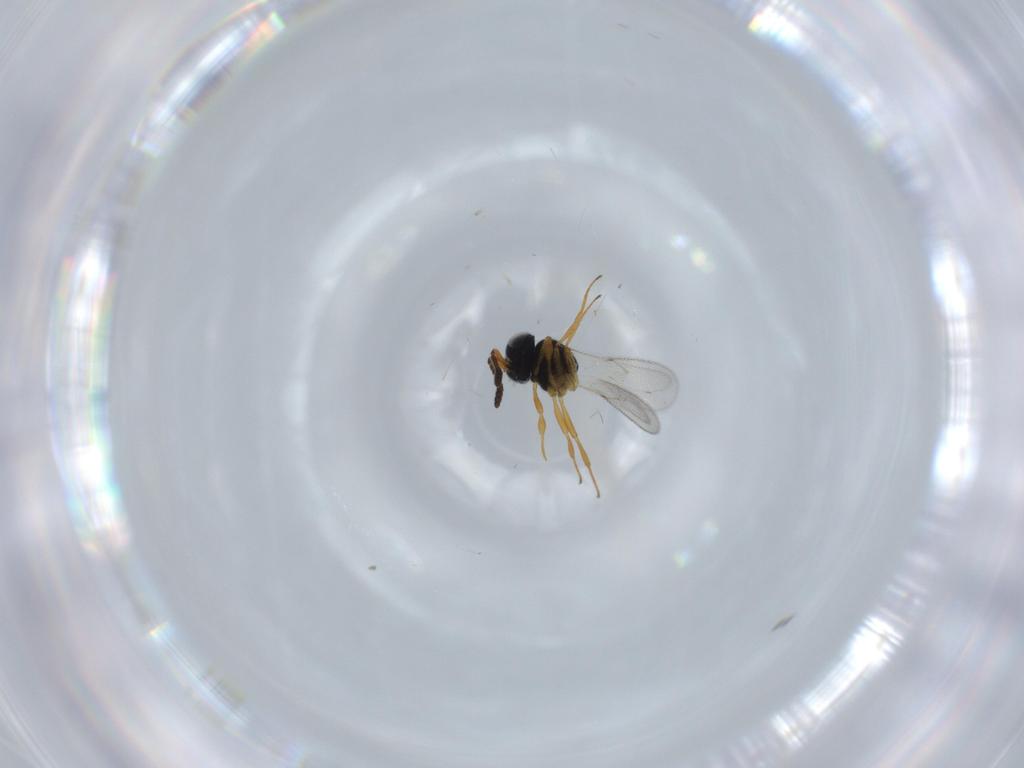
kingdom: Animalia
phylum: Arthropoda
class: Insecta
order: Hymenoptera
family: Scelionidae
